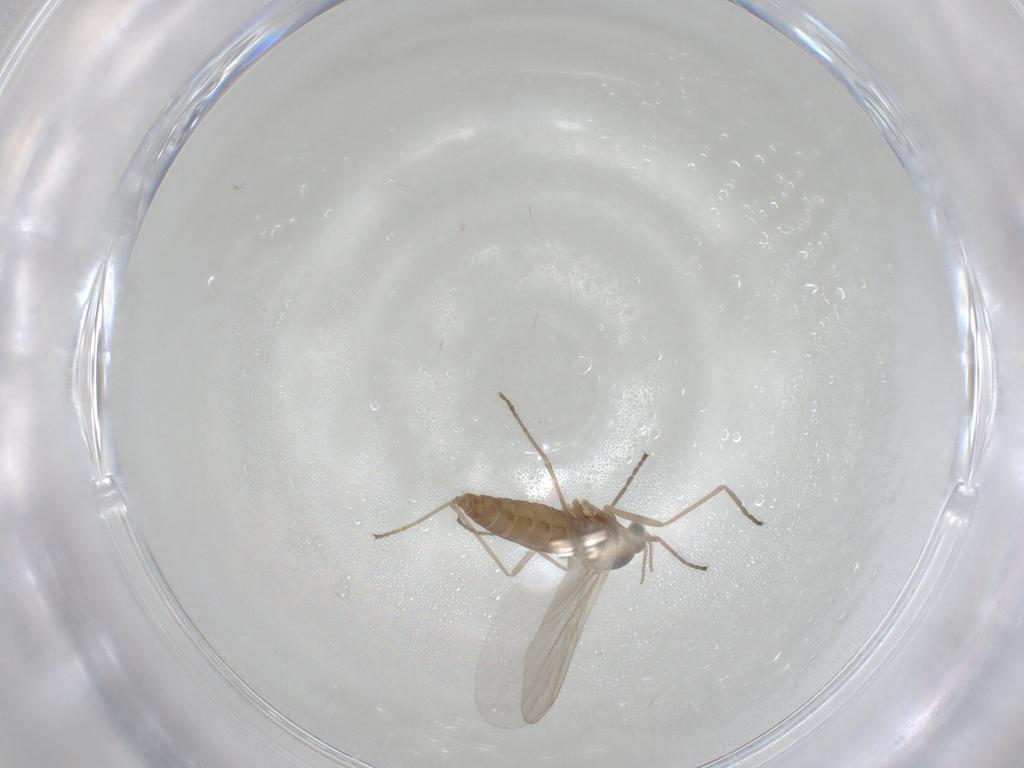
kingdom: Animalia
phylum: Arthropoda
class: Insecta
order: Diptera
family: Cecidomyiidae
